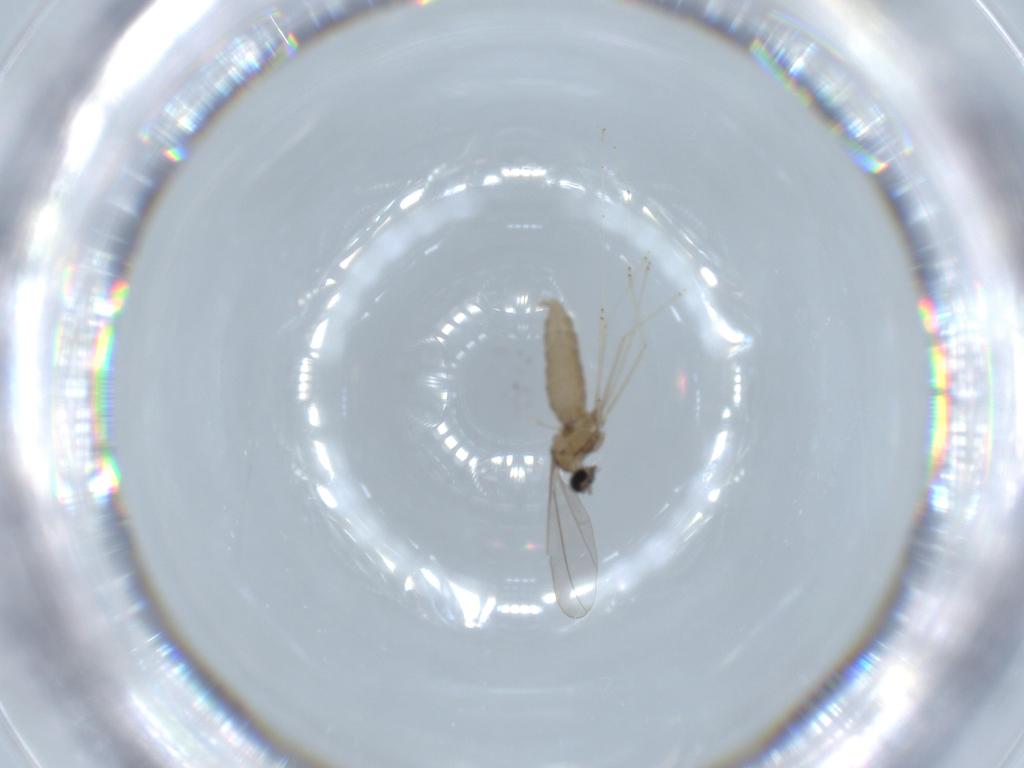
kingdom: Animalia
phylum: Arthropoda
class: Insecta
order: Diptera
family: Cecidomyiidae
